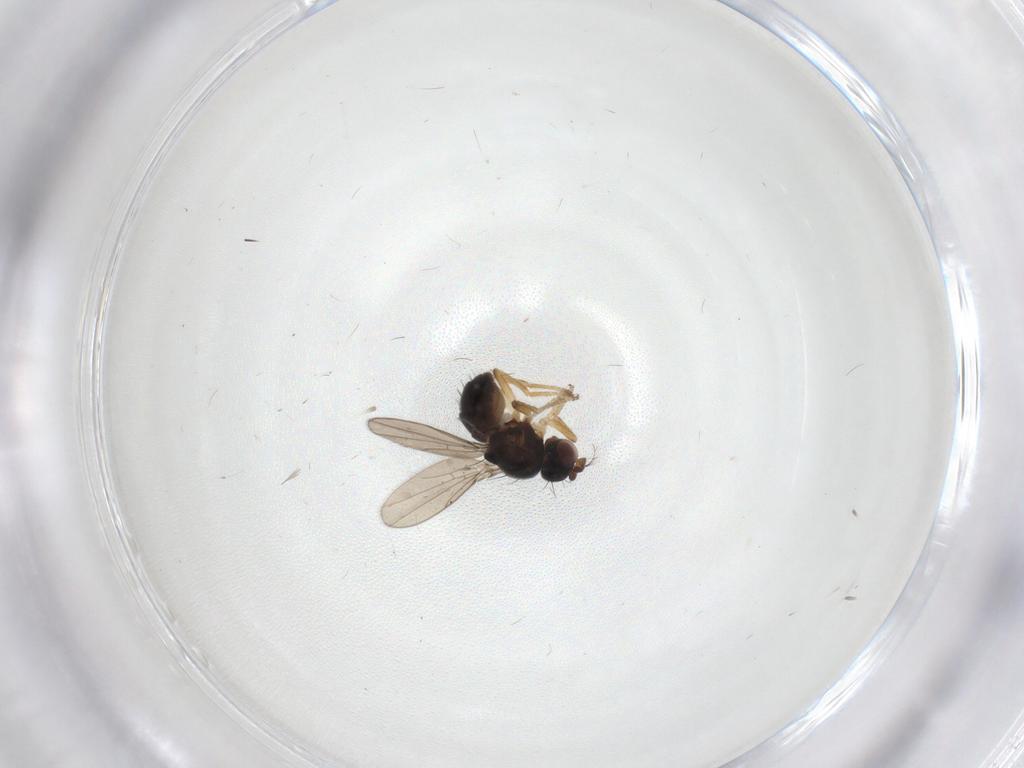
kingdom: Animalia
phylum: Arthropoda
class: Insecta
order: Diptera
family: Ephydridae
